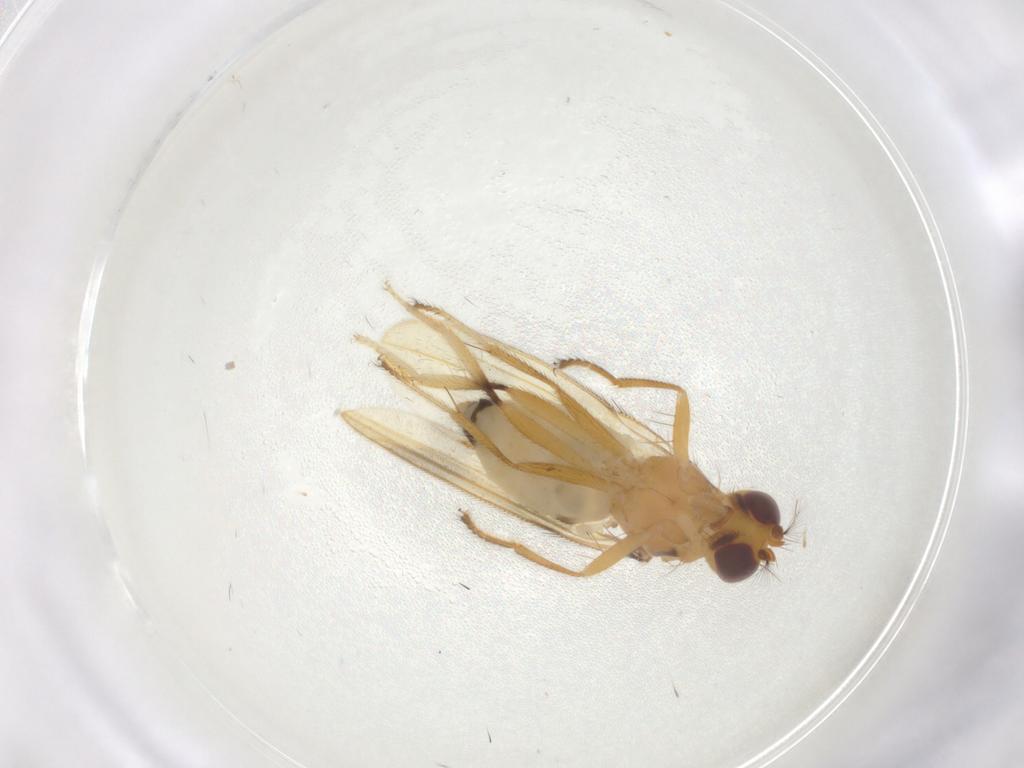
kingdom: Animalia
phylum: Arthropoda
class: Insecta
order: Diptera
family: Periscelididae
